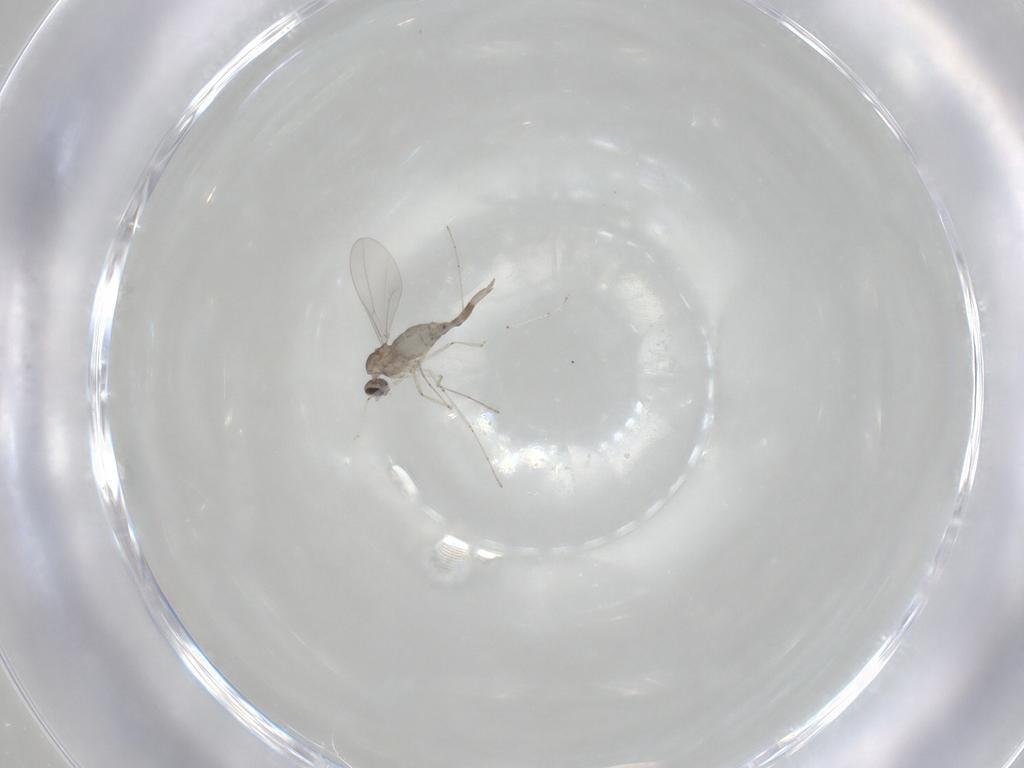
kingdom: Animalia
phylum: Arthropoda
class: Insecta
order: Diptera
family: Cecidomyiidae
